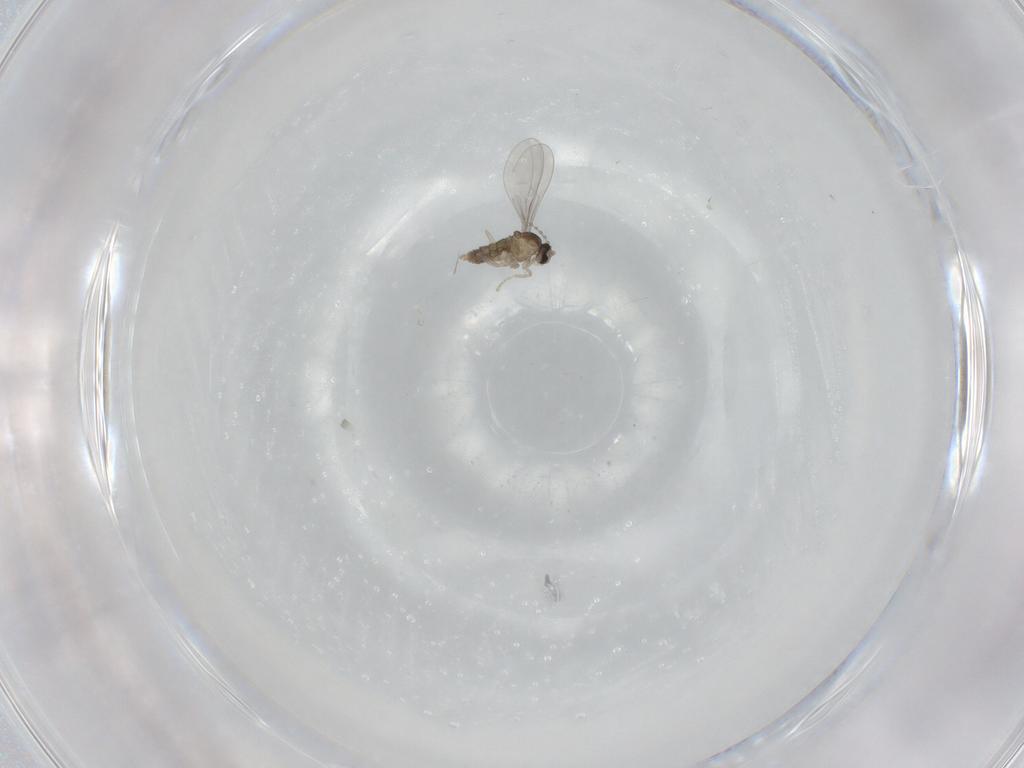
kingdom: Animalia
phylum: Arthropoda
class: Insecta
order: Diptera
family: Cecidomyiidae
